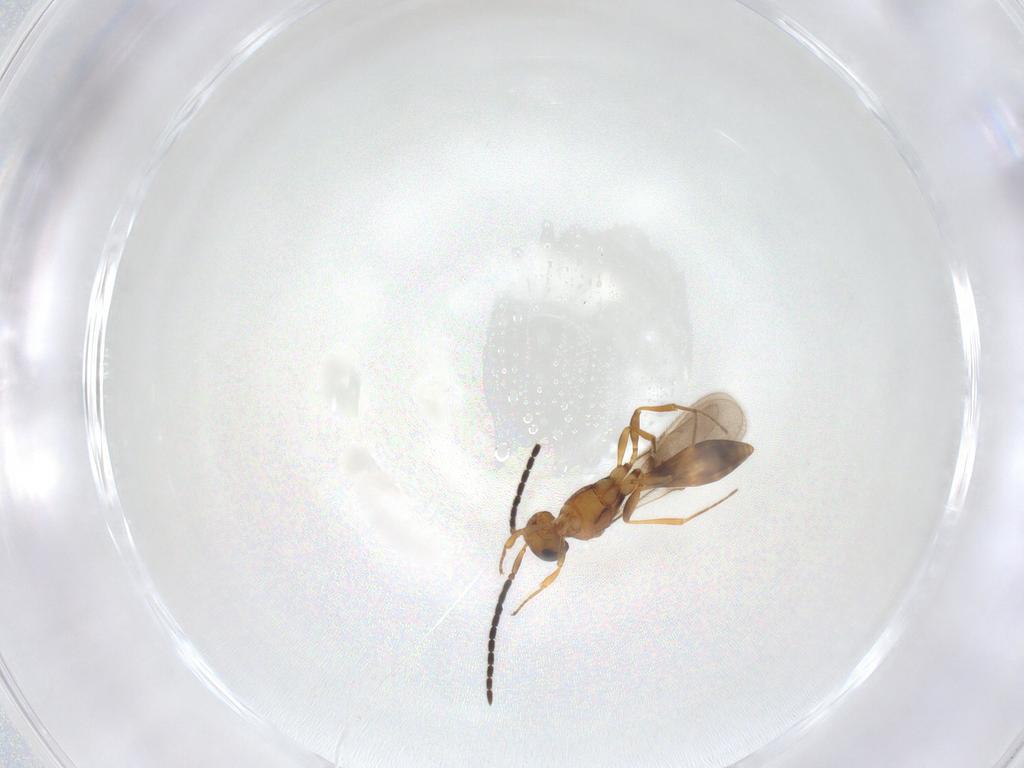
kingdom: Animalia
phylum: Arthropoda
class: Insecta
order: Hymenoptera
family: Scelionidae
